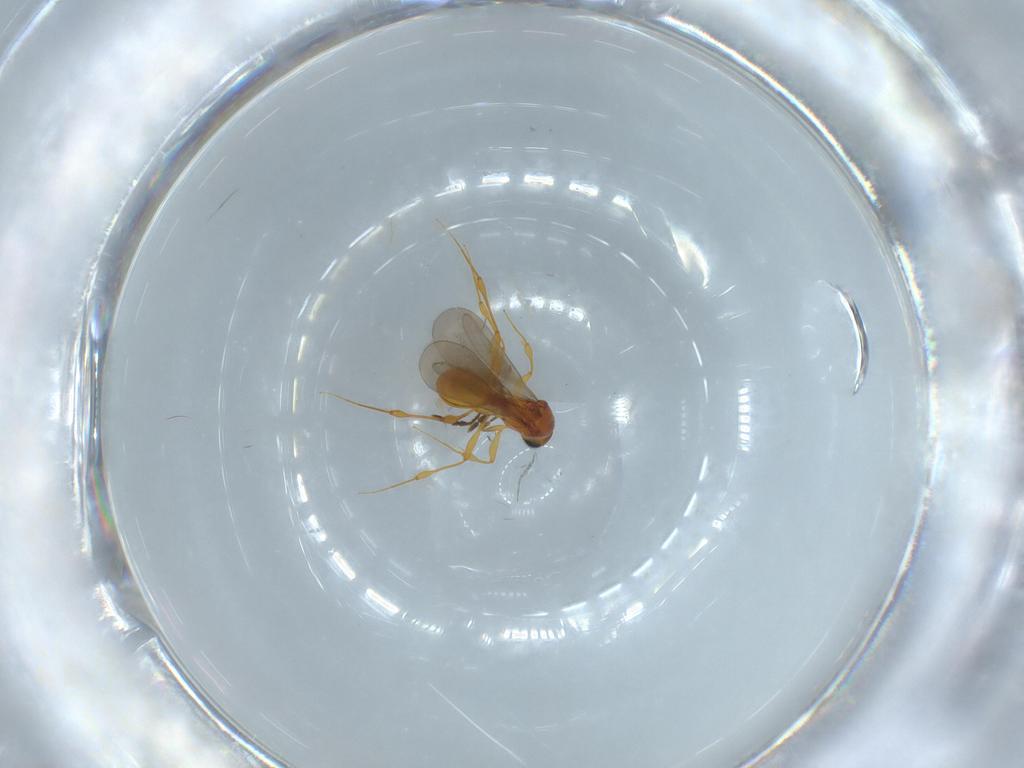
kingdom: Animalia
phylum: Arthropoda
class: Insecta
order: Hymenoptera
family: Platygastridae
